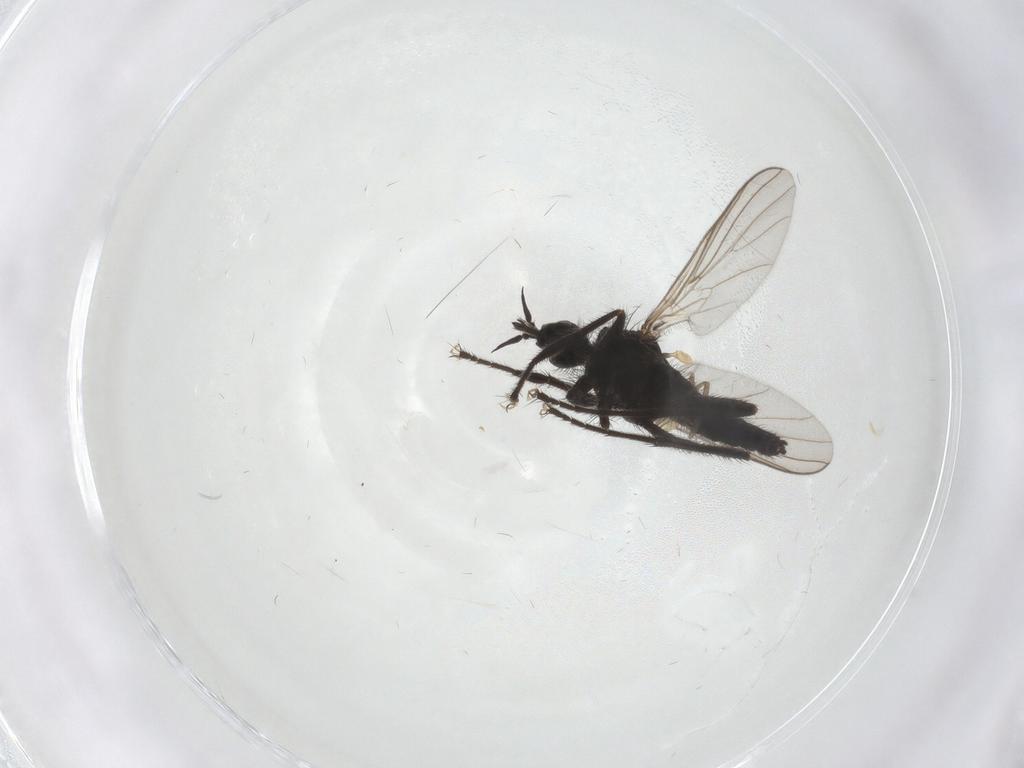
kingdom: Animalia
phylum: Arthropoda
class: Insecta
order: Diptera
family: Empididae
